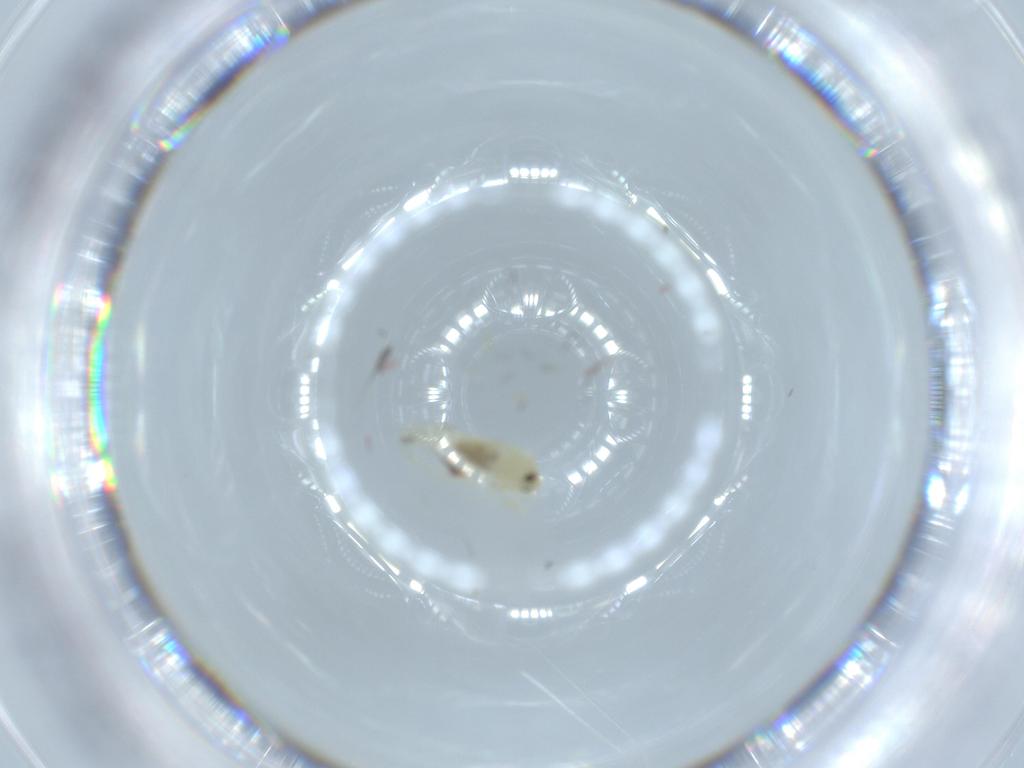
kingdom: Animalia
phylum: Arthropoda
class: Insecta
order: Hemiptera
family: Aleyrodidae
